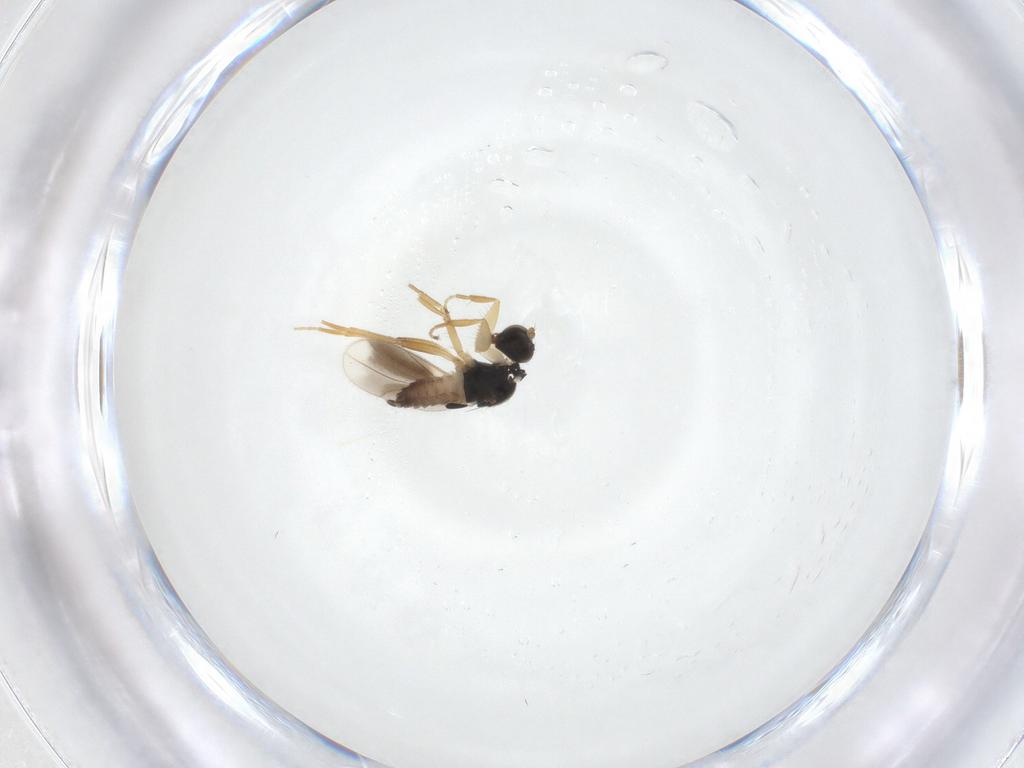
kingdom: Animalia
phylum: Arthropoda
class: Insecta
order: Diptera
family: Hybotidae
